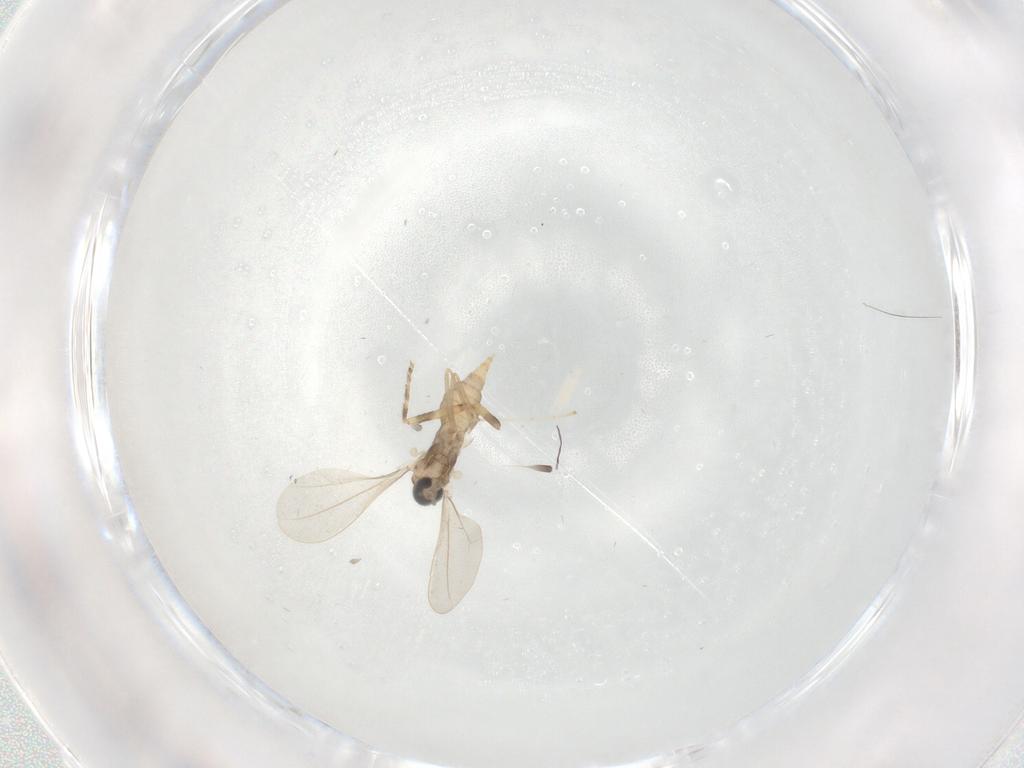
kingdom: Animalia
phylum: Arthropoda
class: Insecta
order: Diptera
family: Cecidomyiidae
